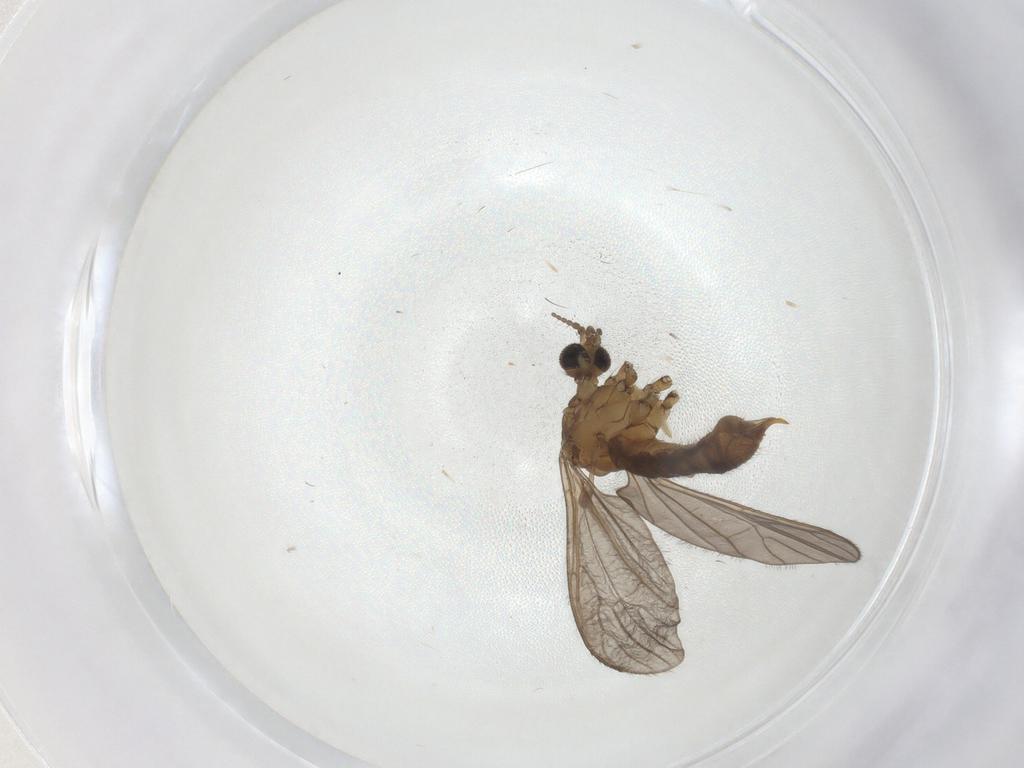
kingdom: Animalia
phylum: Arthropoda
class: Insecta
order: Diptera
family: Limoniidae
